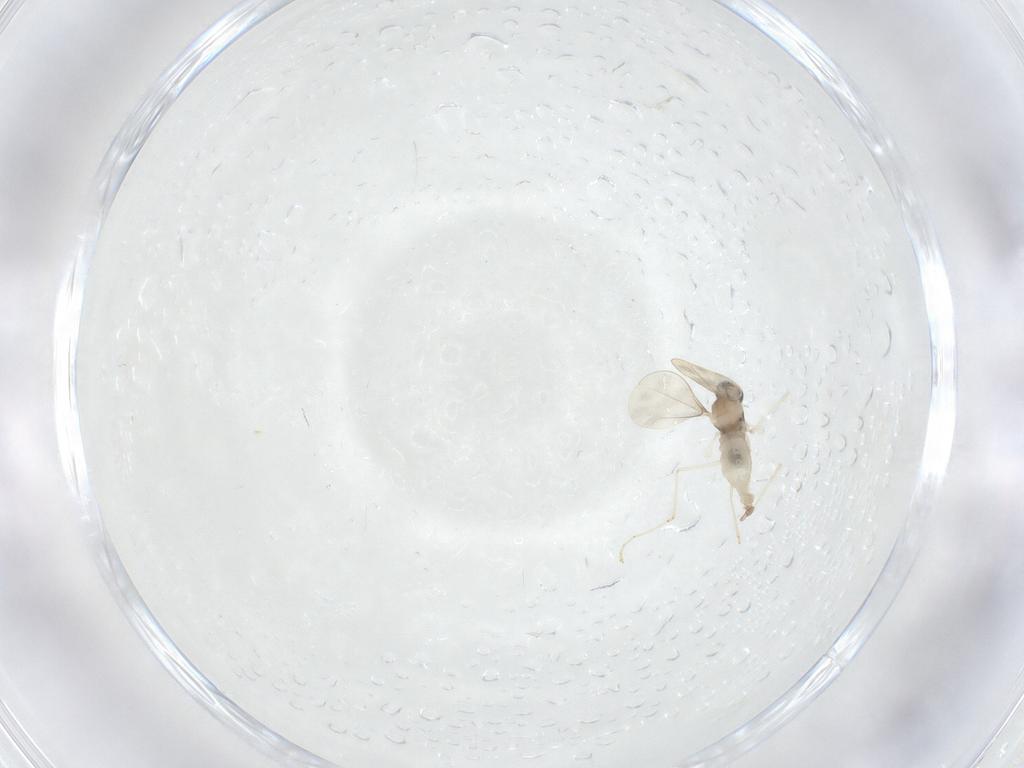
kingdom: Animalia
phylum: Arthropoda
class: Insecta
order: Diptera
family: Cecidomyiidae
